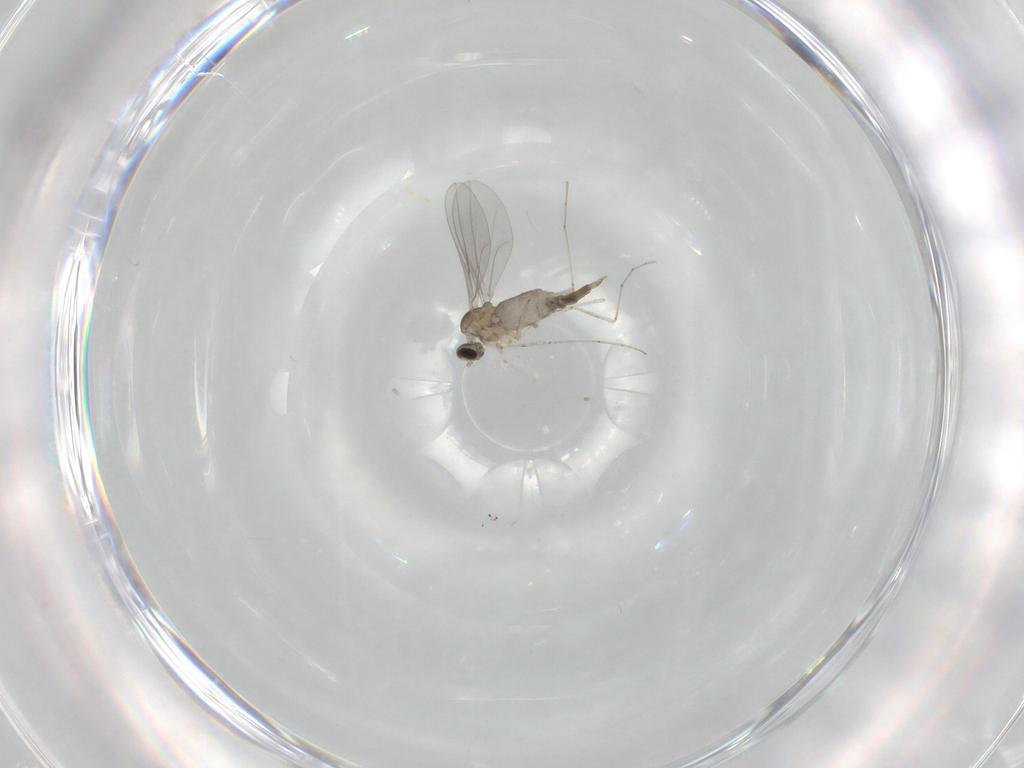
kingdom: Animalia
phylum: Arthropoda
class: Insecta
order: Diptera
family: Cecidomyiidae
